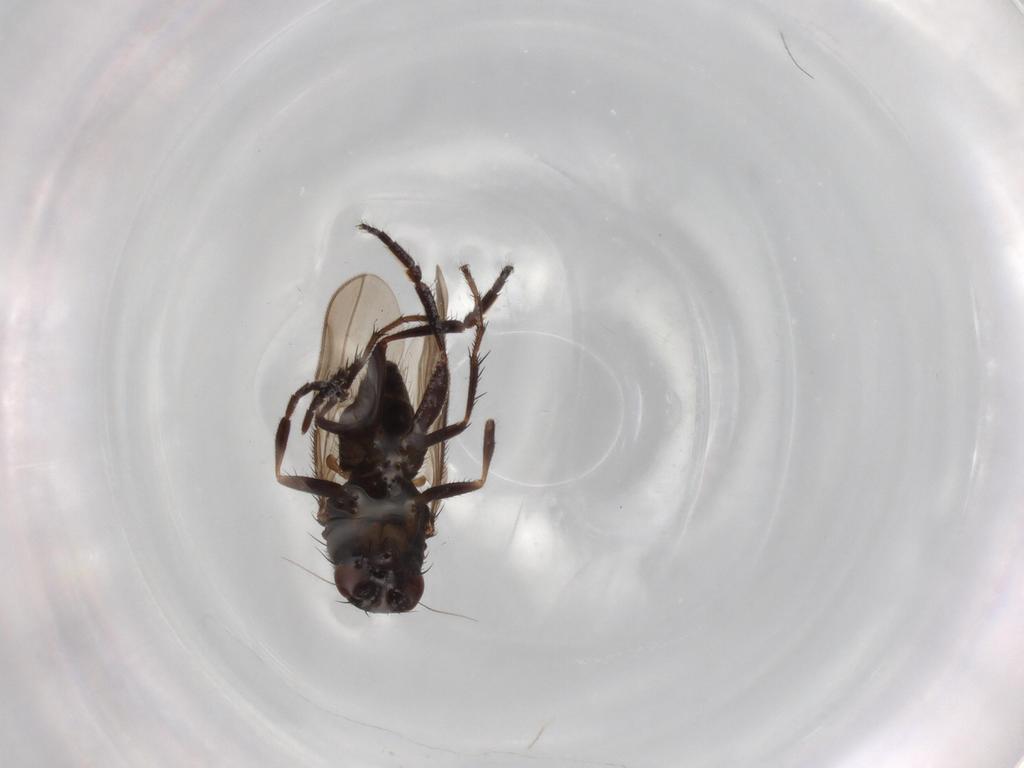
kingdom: Animalia
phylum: Arthropoda
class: Insecta
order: Diptera
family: Sphaeroceridae
